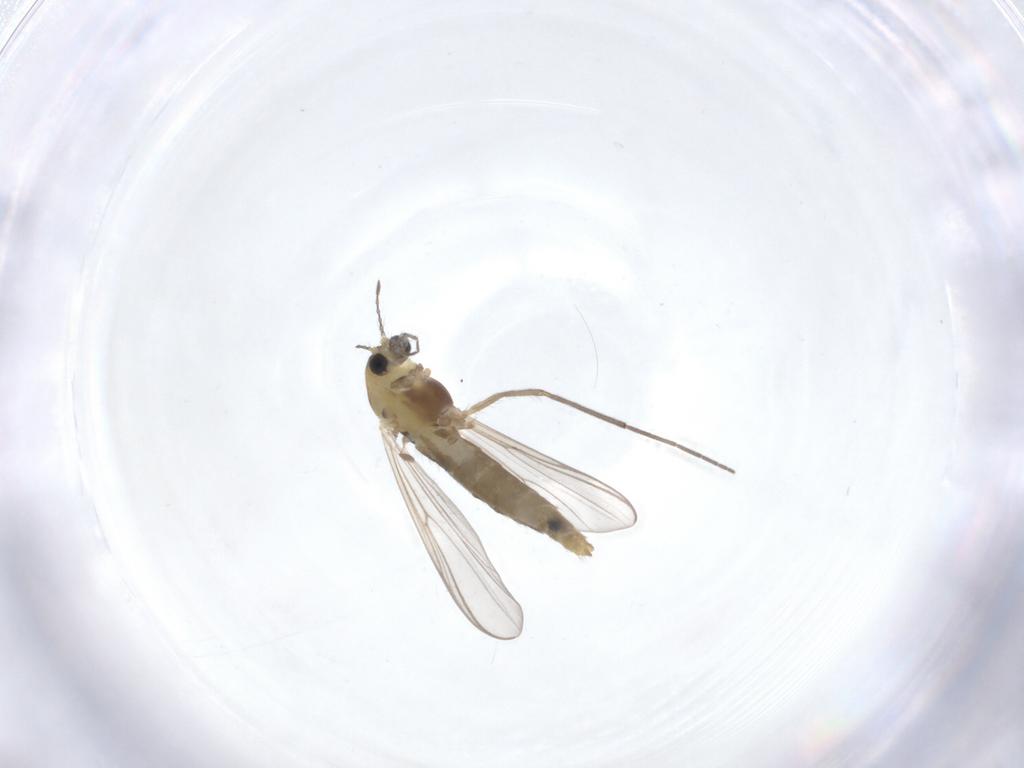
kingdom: Animalia
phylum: Arthropoda
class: Insecta
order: Diptera
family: Chironomidae
